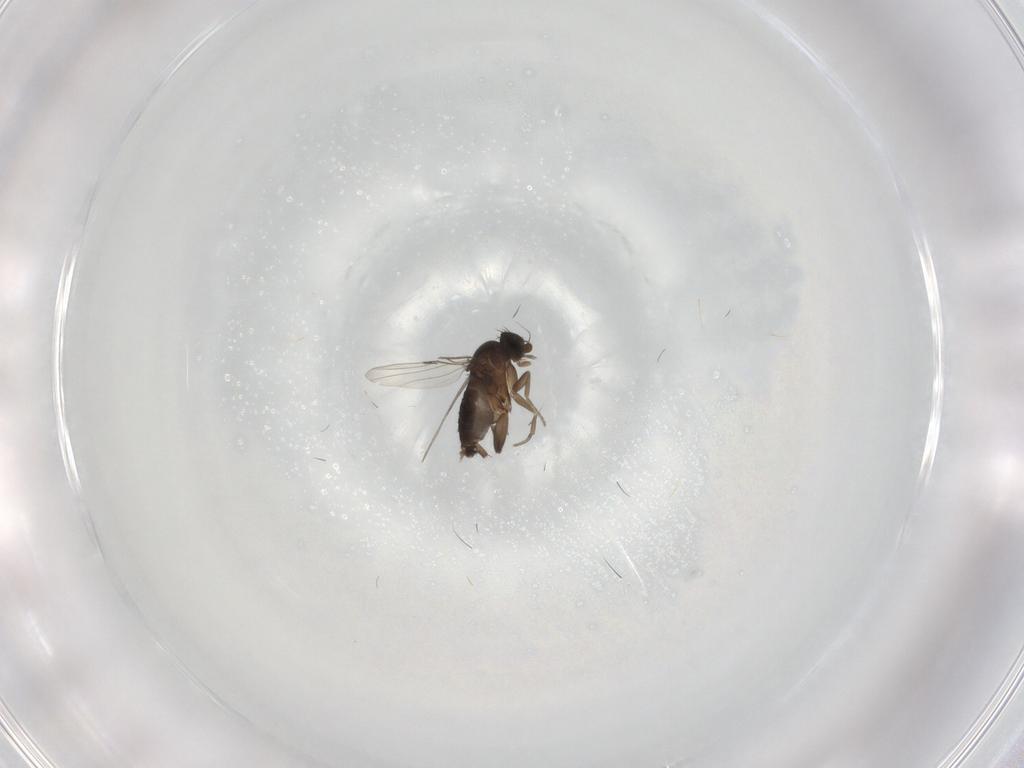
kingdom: Animalia
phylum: Arthropoda
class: Insecta
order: Diptera
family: Phoridae
